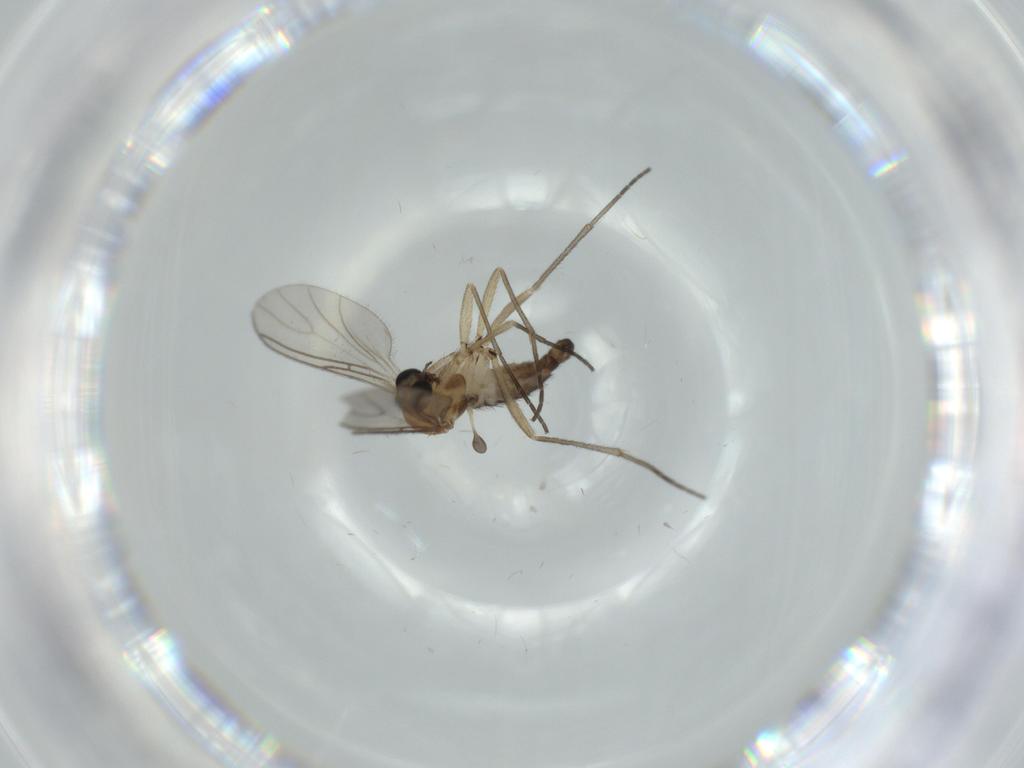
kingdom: Animalia
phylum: Arthropoda
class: Insecta
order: Diptera
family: Sciaridae
